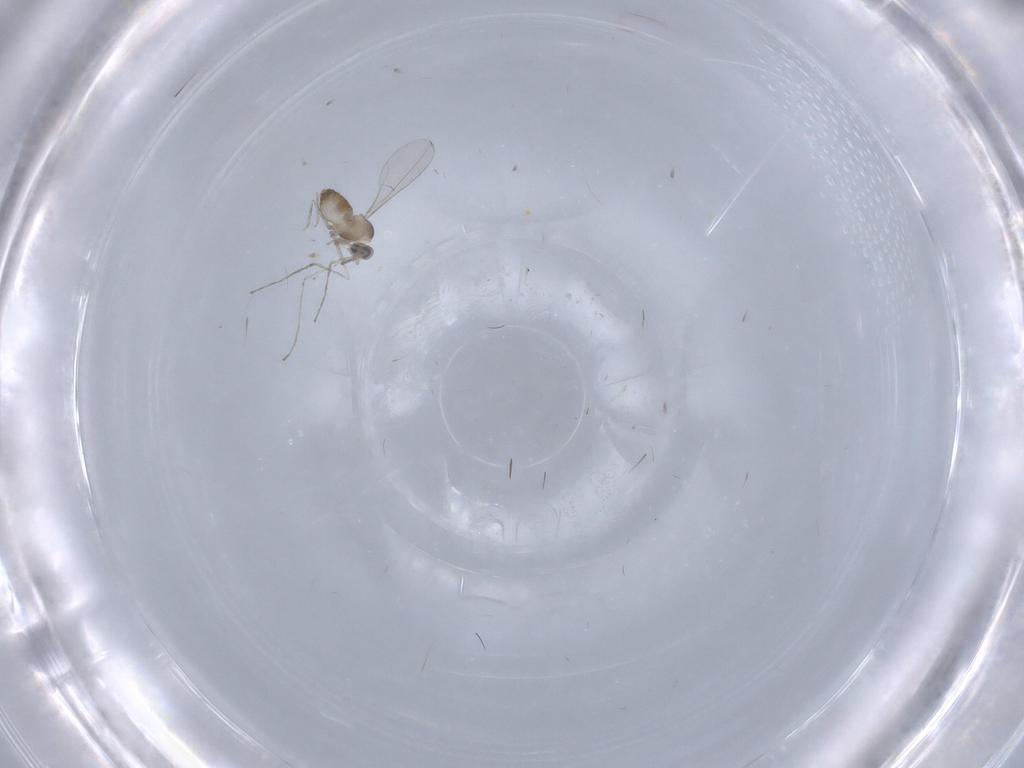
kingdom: Animalia
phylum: Arthropoda
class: Insecta
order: Diptera
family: Cecidomyiidae
